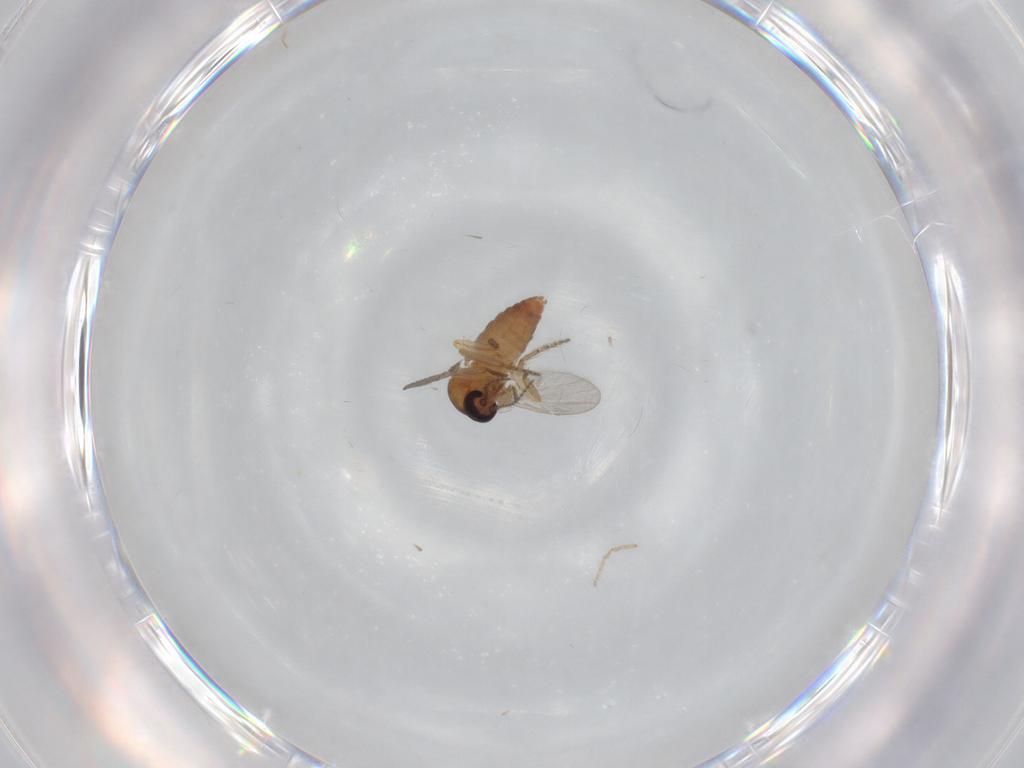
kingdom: Animalia
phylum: Arthropoda
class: Insecta
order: Diptera
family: Ceratopogonidae
